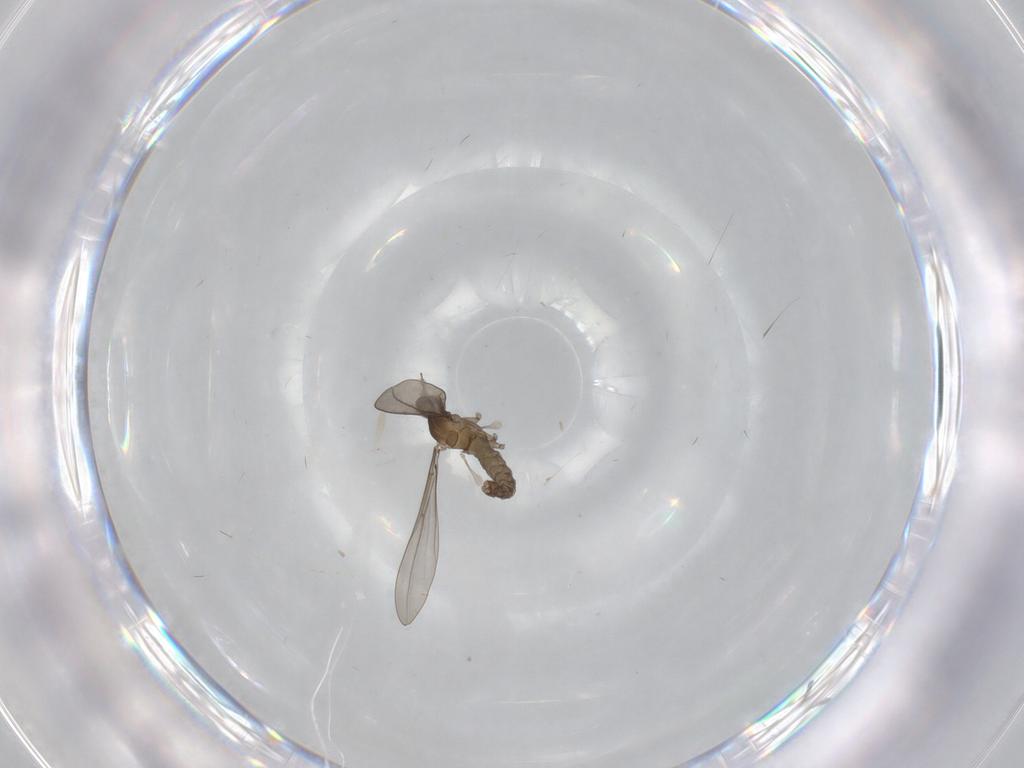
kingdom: Animalia
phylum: Arthropoda
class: Insecta
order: Diptera
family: Cecidomyiidae
